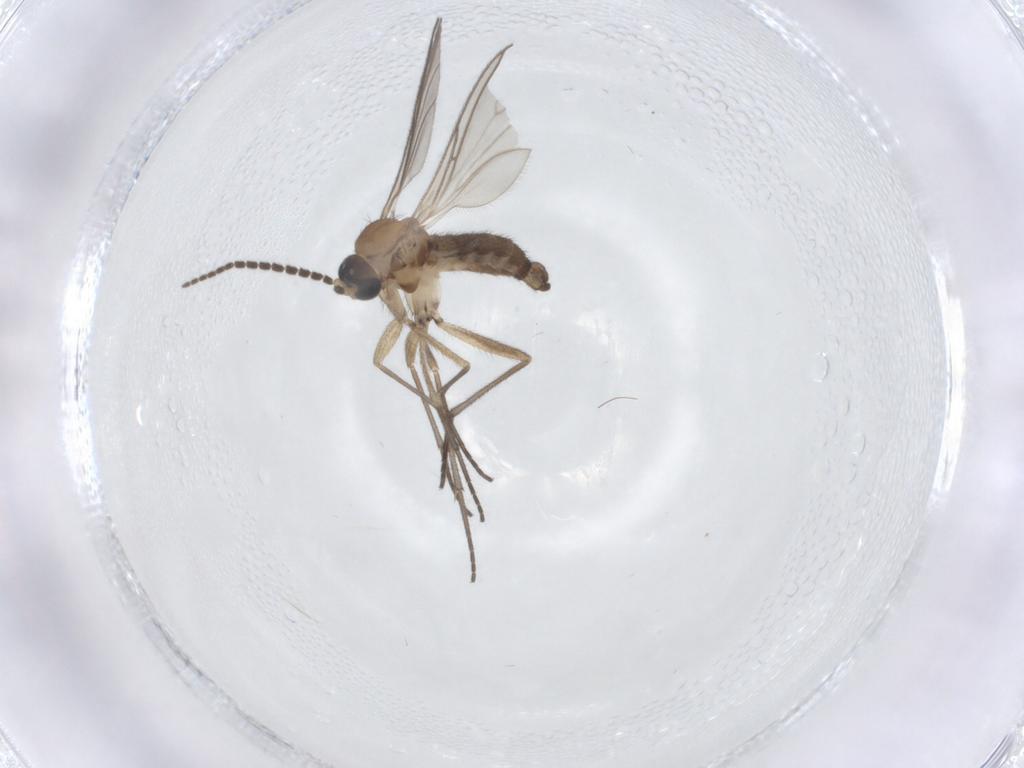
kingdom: Animalia
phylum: Arthropoda
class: Insecta
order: Diptera
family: Sciaridae
